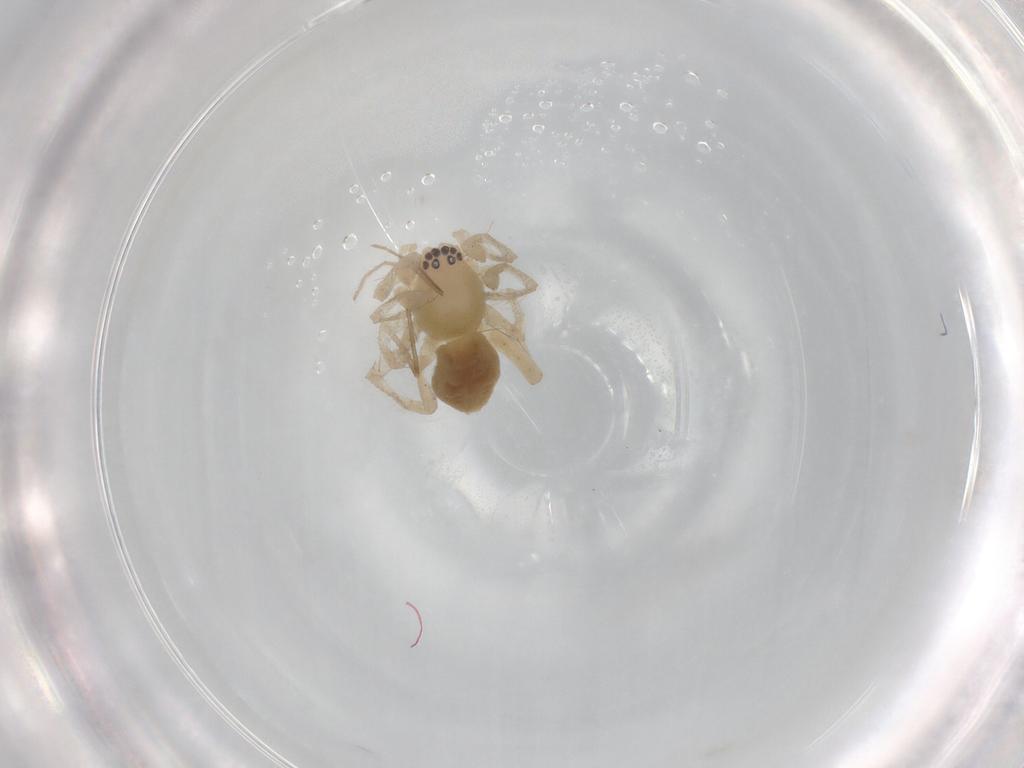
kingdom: Animalia
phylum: Arthropoda
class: Arachnida
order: Araneae
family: Clubionidae
